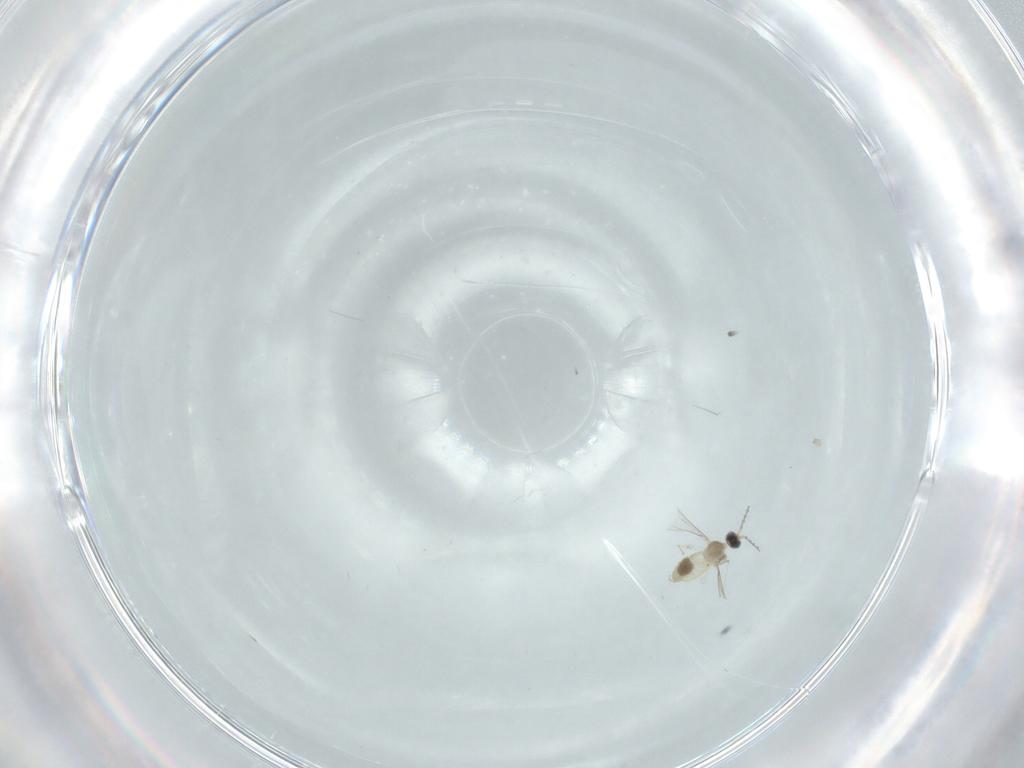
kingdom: Animalia
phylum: Arthropoda
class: Insecta
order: Diptera
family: Cecidomyiidae
